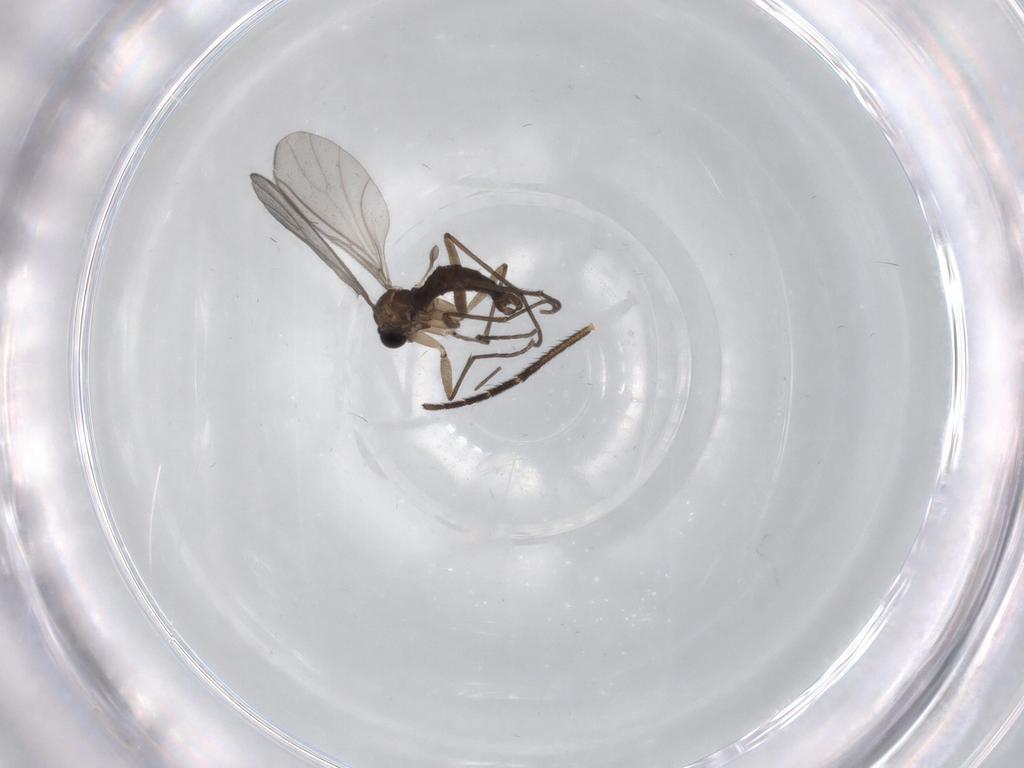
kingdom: Animalia
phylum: Arthropoda
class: Insecta
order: Diptera
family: Sciaridae
